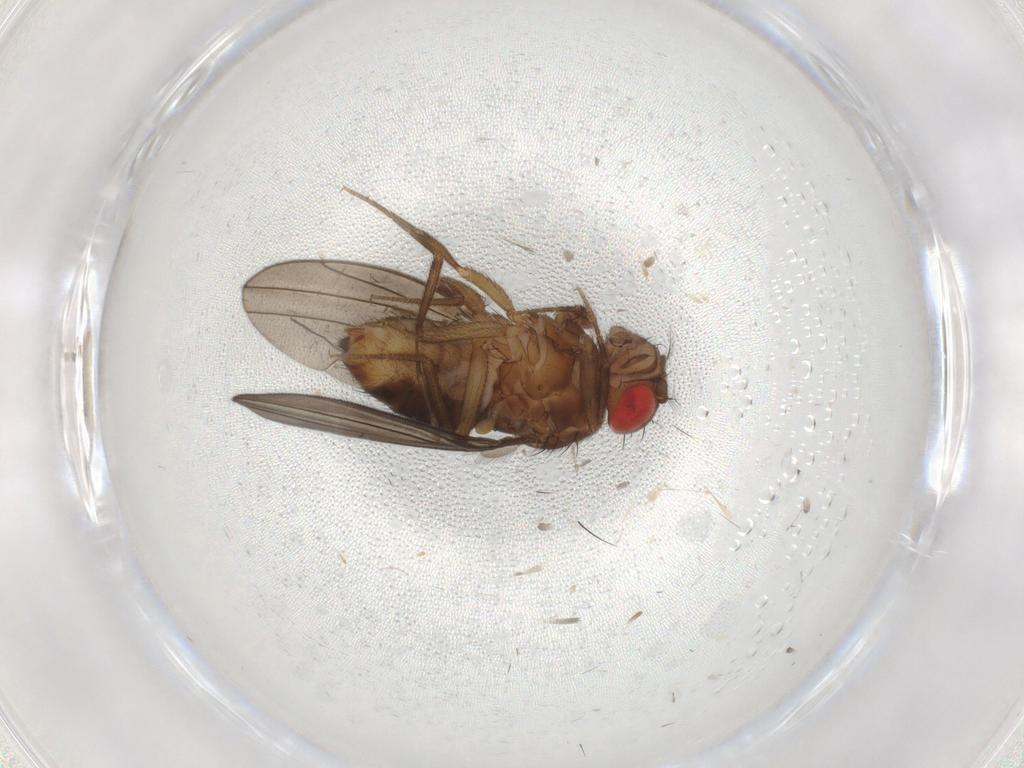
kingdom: Animalia
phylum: Arthropoda
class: Insecta
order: Diptera
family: Drosophilidae
